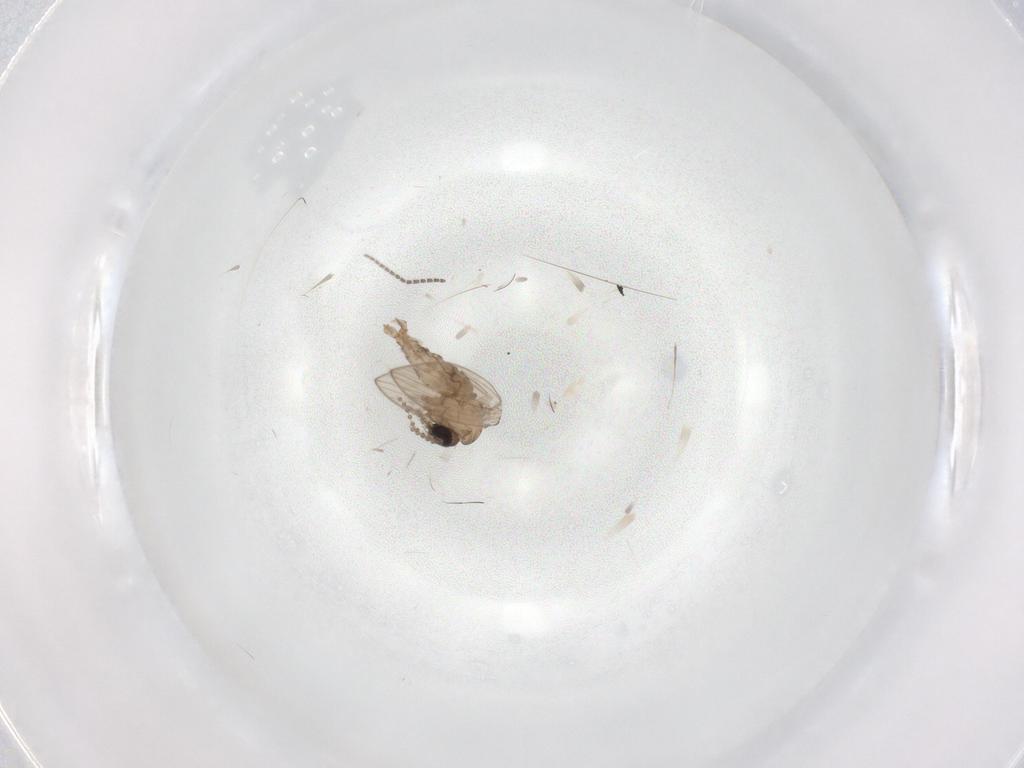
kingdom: Animalia
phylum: Arthropoda
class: Insecta
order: Diptera
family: Psychodidae
